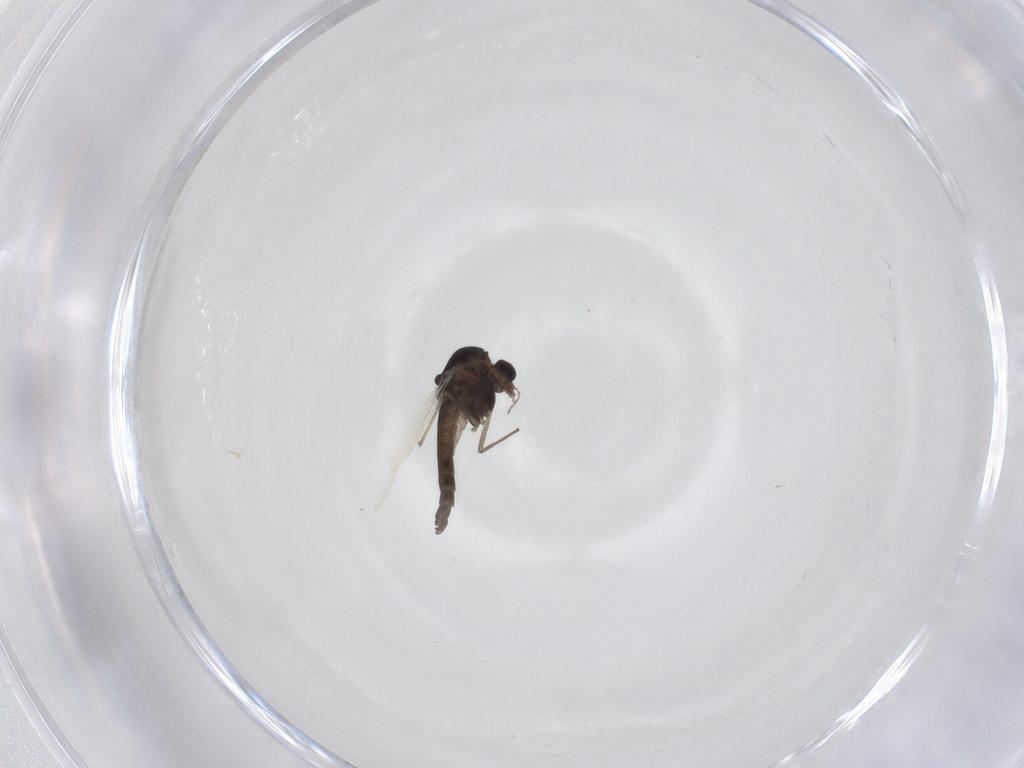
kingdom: Animalia
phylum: Arthropoda
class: Insecta
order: Diptera
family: Chironomidae
